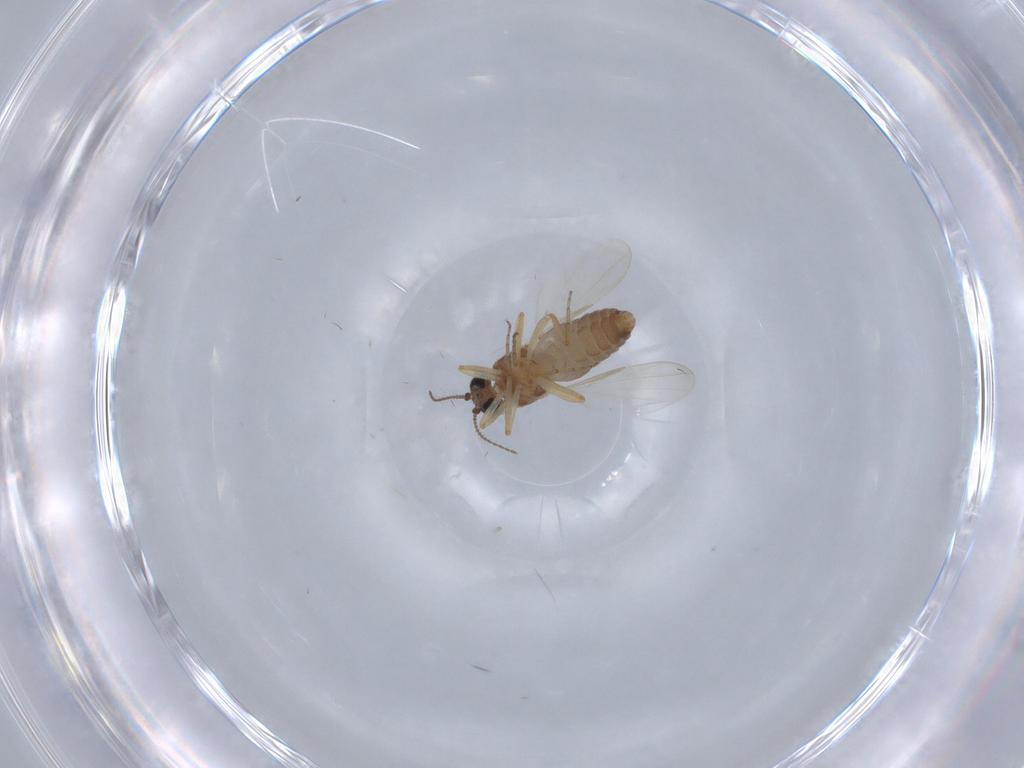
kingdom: Animalia
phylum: Arthropoda
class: Insecta
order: Diptera
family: Ceratopogonidae
